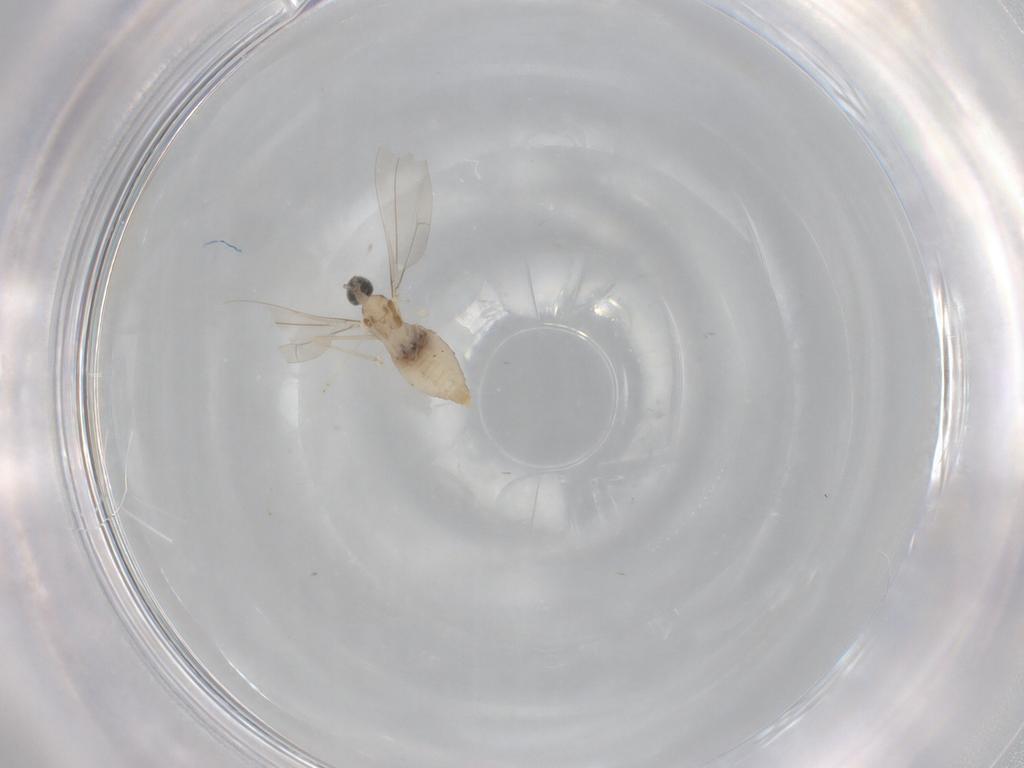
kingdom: Animalia
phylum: Arthropoda
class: Insecta
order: Diptera
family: Cecidomyiidae
